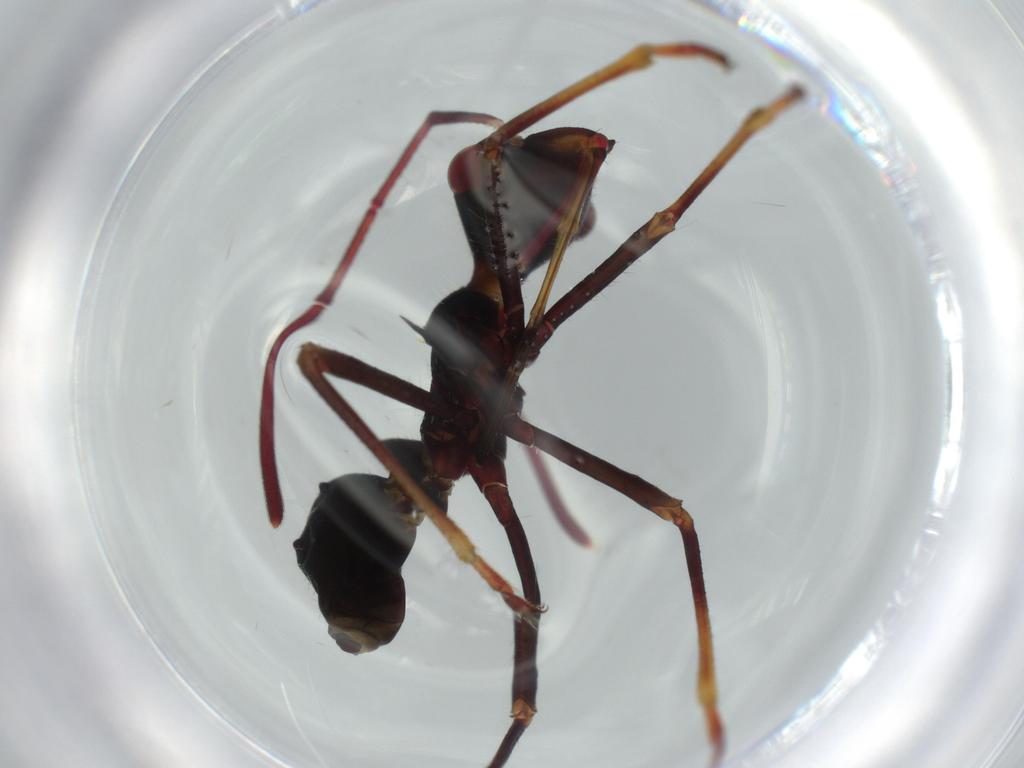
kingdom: Animalia
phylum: Arthropoda
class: Insecta
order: Hemiptera
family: Alydidae
